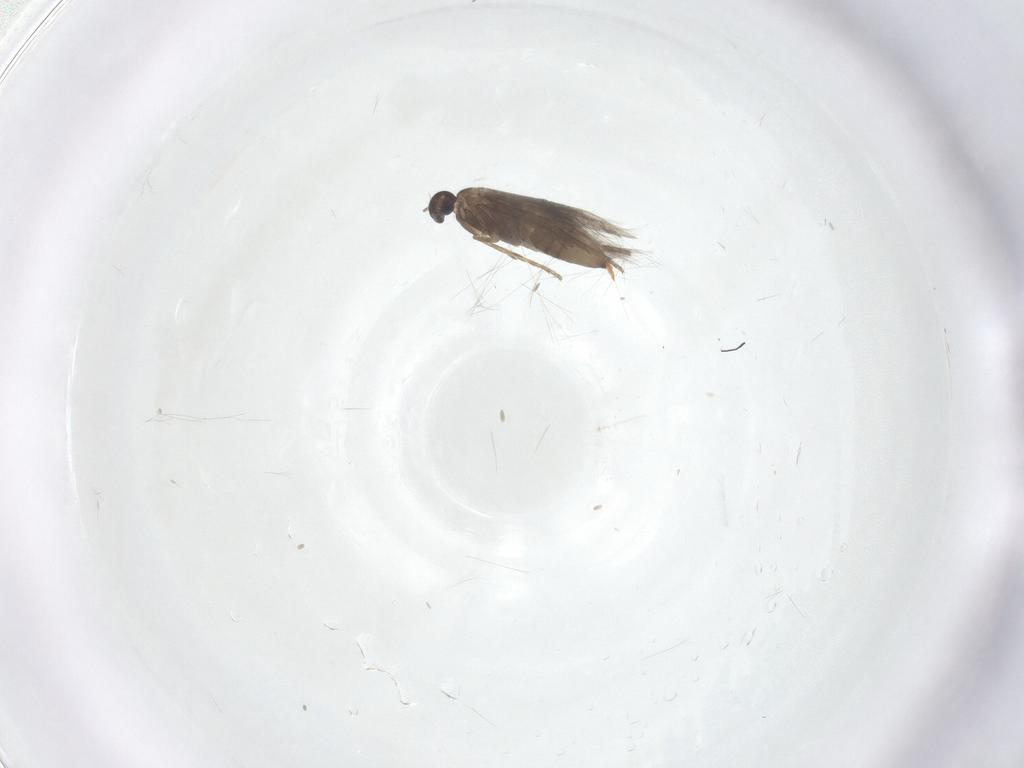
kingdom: Animalia
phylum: Arthropoda
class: Insecta
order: Lepidoptera
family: Heliozelidae
